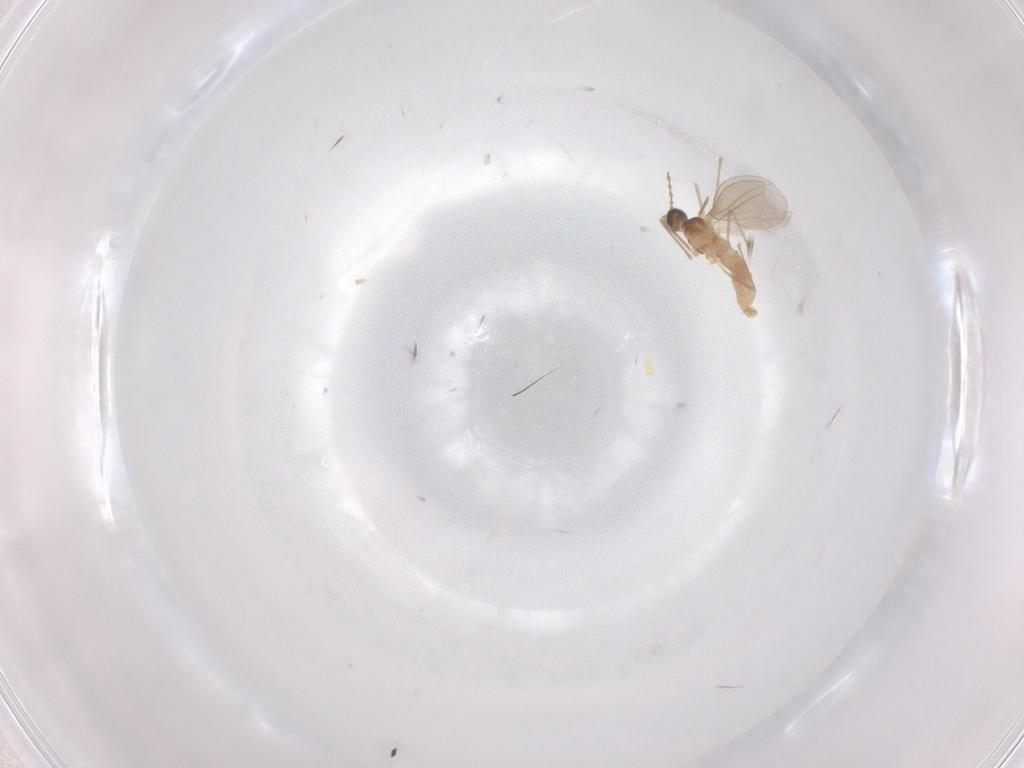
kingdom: Animalia
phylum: Arthropoda
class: Insecta
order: Diptera
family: Chironomidae
